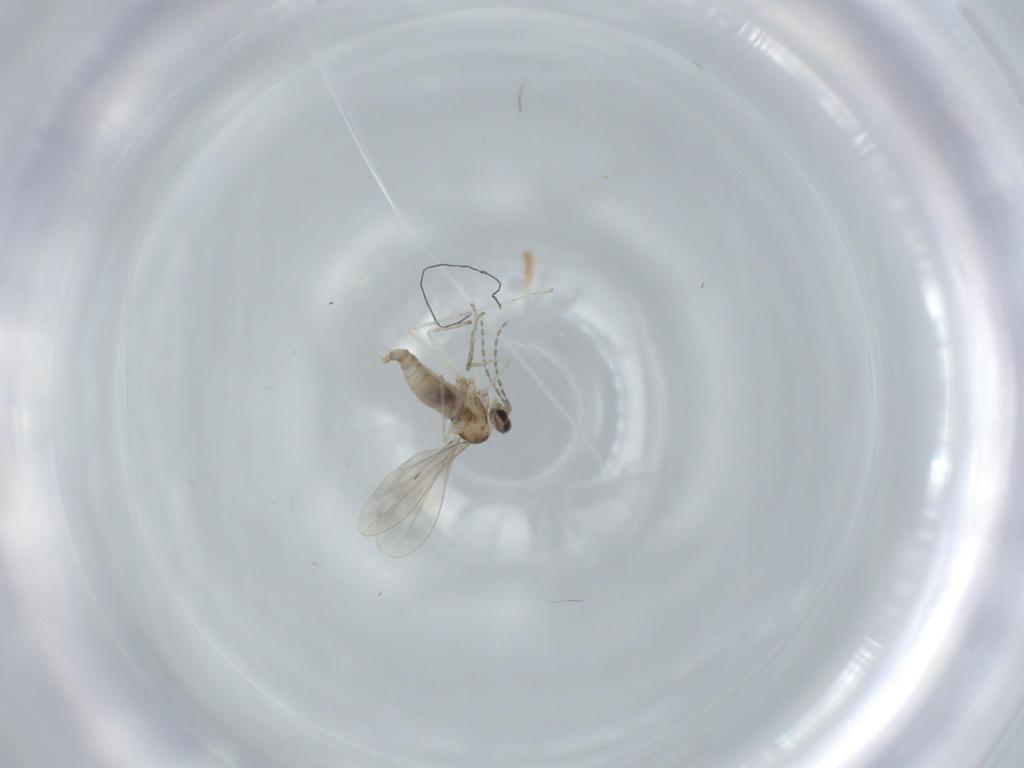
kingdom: Animalia
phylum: Arthropoda
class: Insecta
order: Diptera
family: Cecidomyiidae
